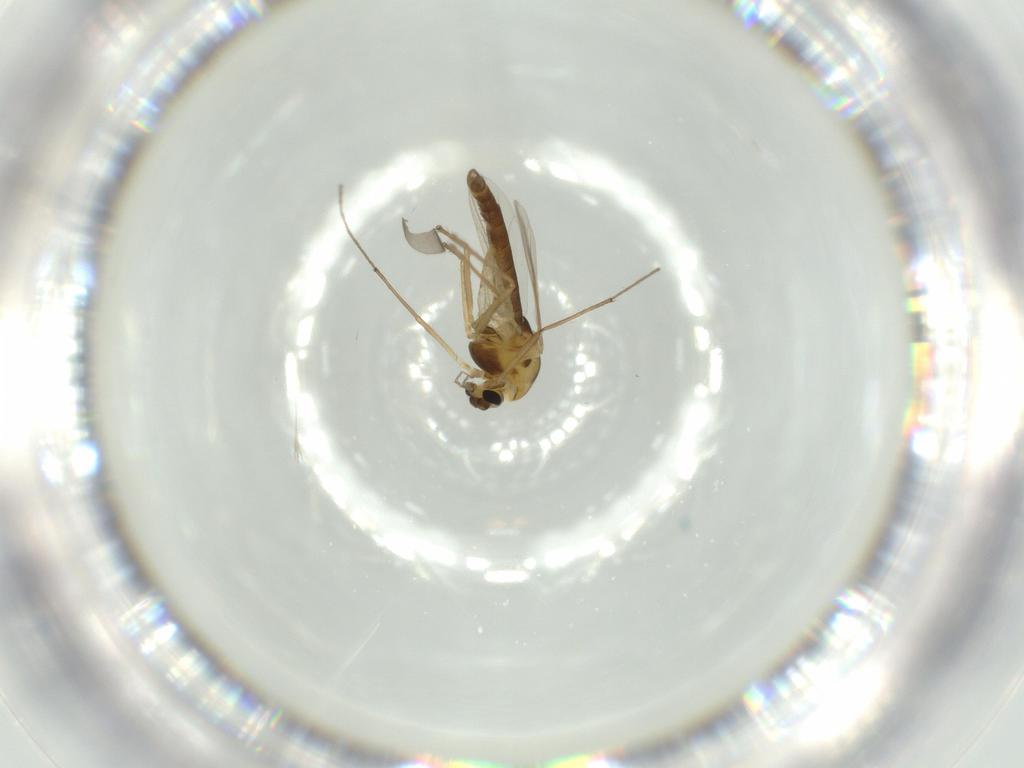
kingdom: Animalia
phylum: Arthropoda
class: Insecta
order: Diptera
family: Chironomidae
